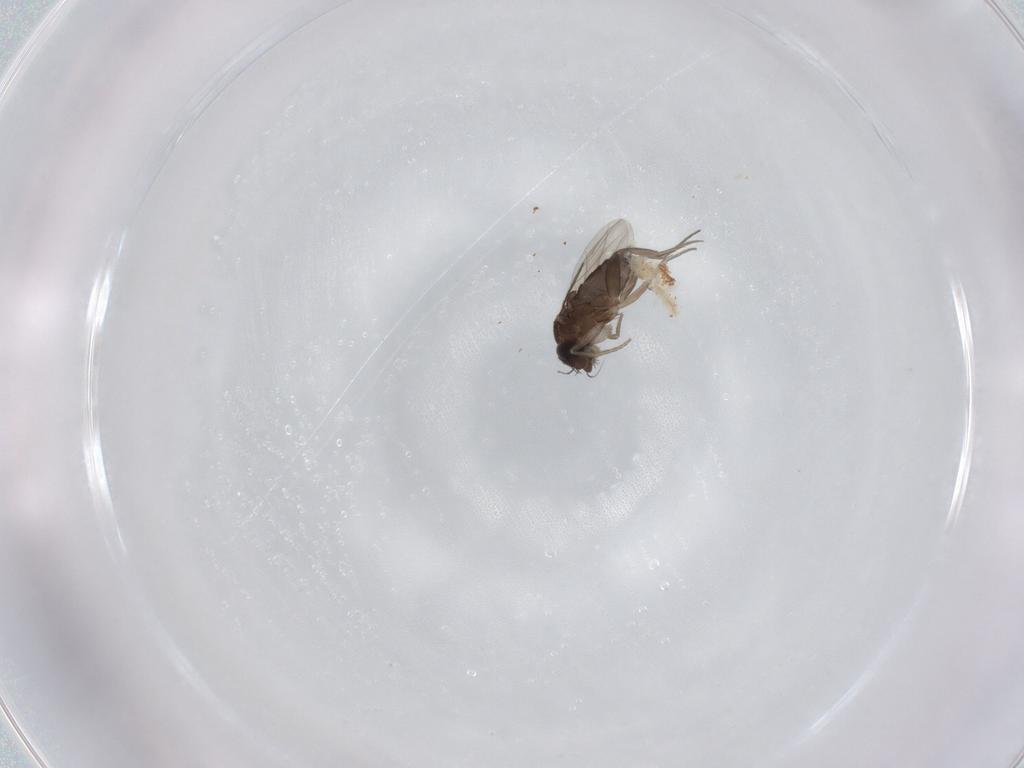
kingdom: Animalia
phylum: Arthropoda
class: Insecta
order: Diptera
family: Phoridae
